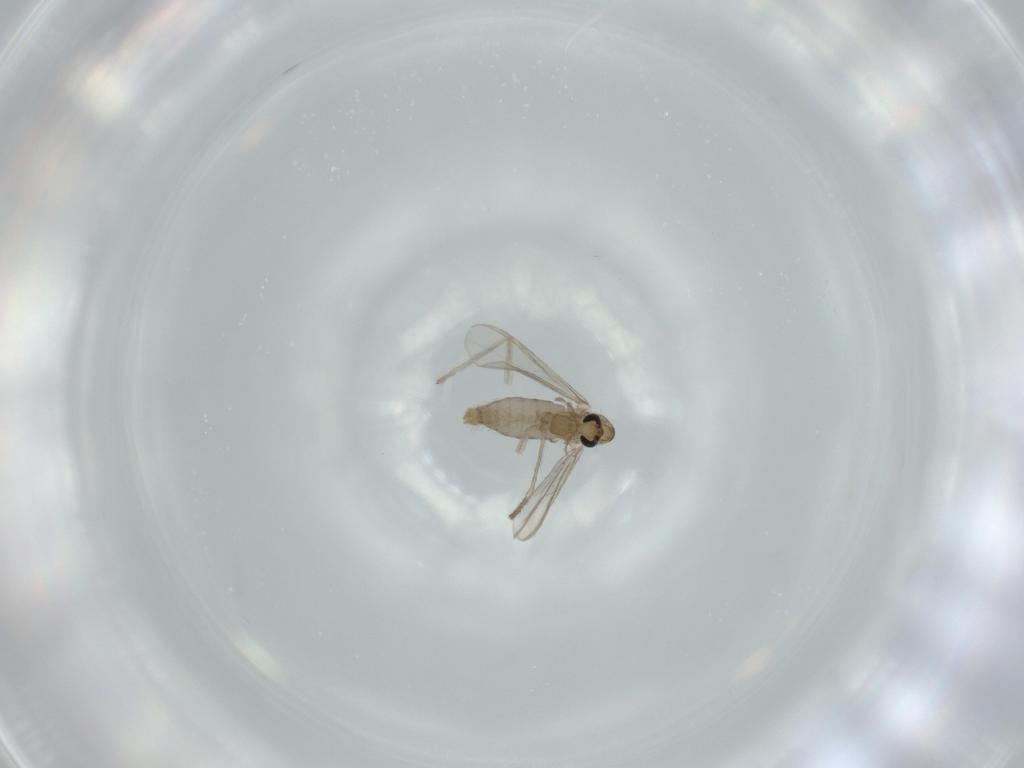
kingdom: Animalia
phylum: Arthropoda
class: Insecta
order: Diptera
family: Chironomidae
